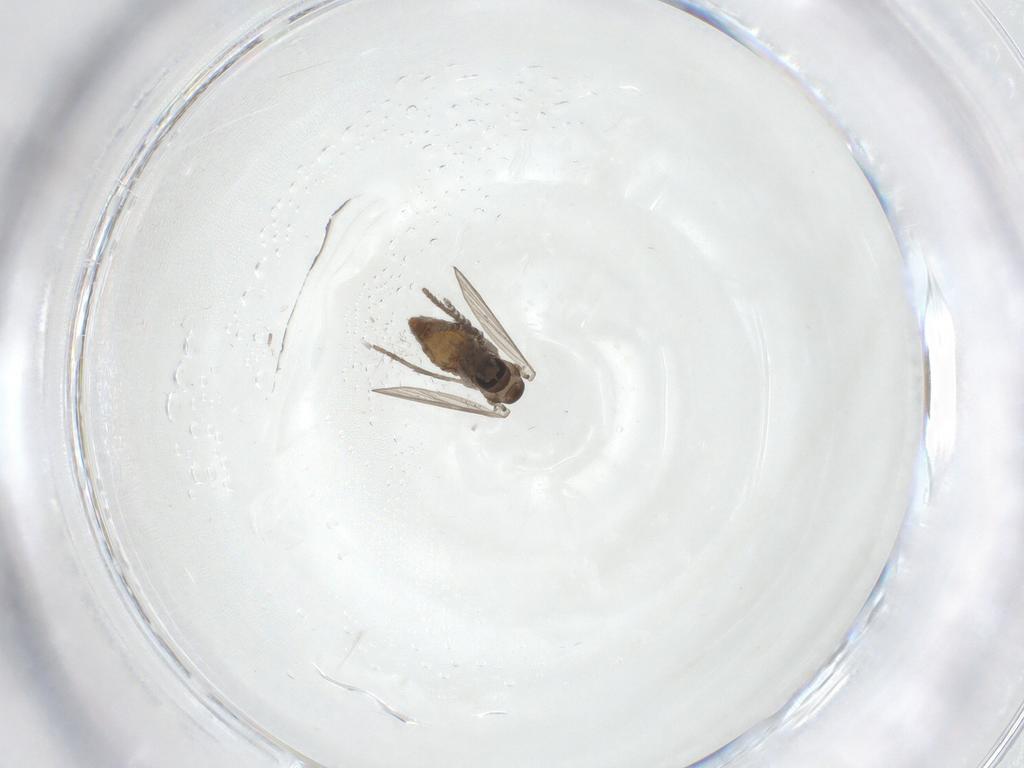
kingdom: Animalia
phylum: Arthropoda
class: Insecta
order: Diptera
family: Psychodidae
